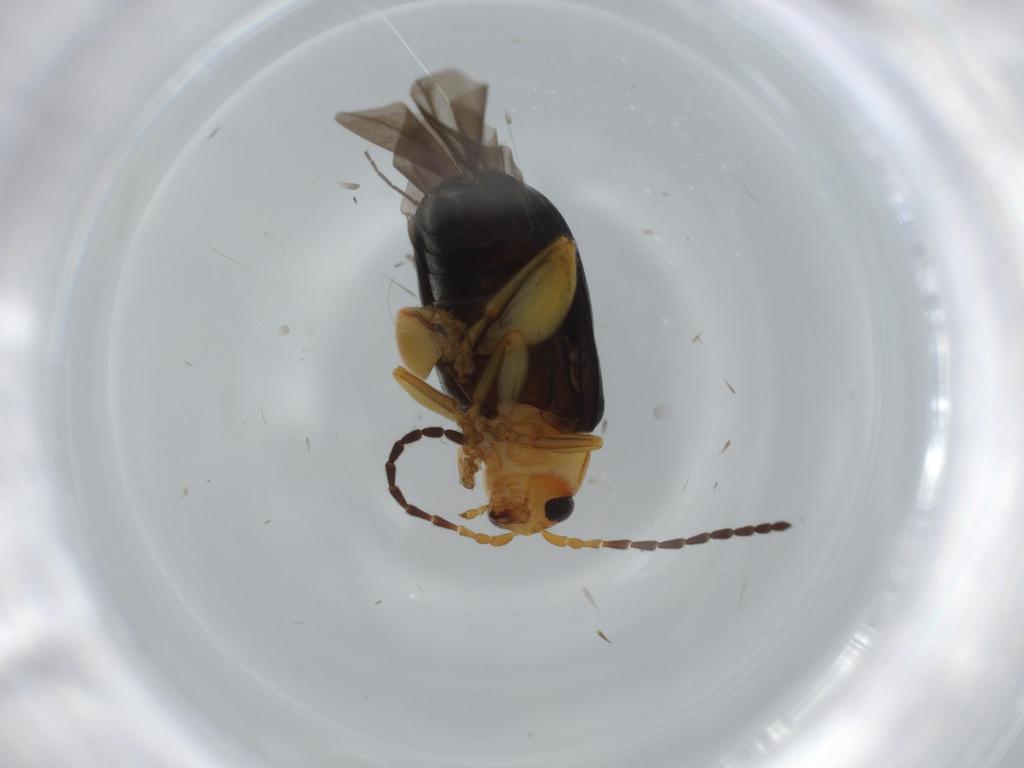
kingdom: Animalia
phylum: Arthropoda
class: Insecta
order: Coleoptera
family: Chrysomelidae
